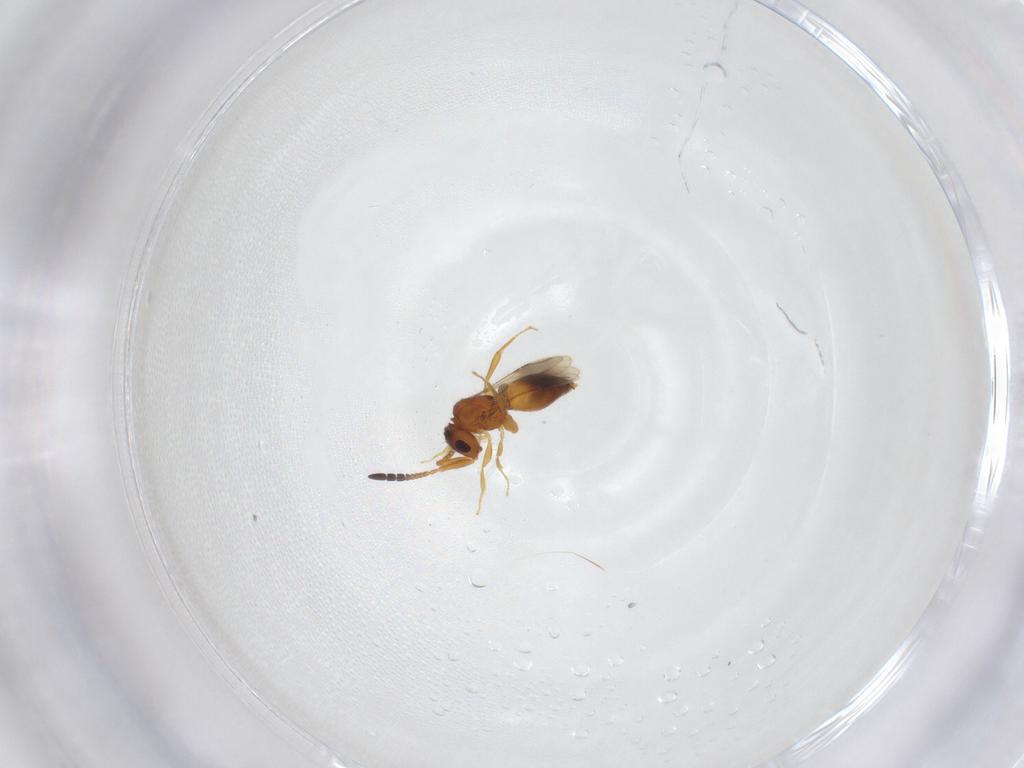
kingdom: Animalia
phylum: Arthropoda
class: Insecta
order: Hymenoptera
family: Ceraphronidae
